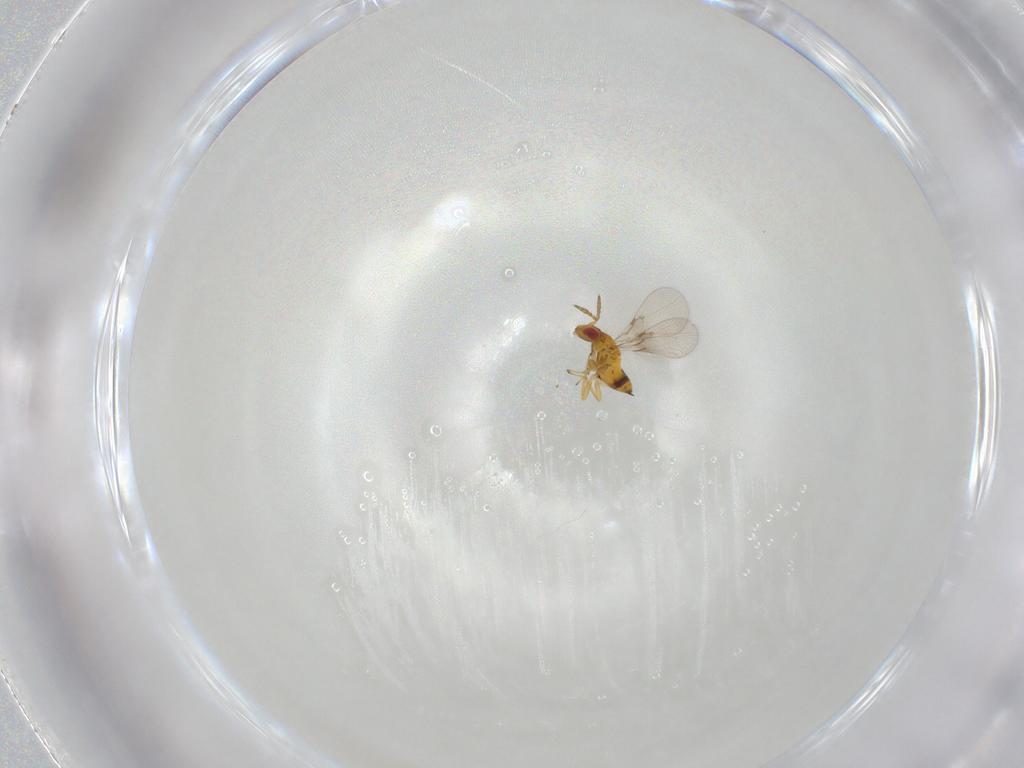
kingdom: Animalia
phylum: Arthropoda
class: Insecta
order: Hymenoptera
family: Trichogrammatidae
